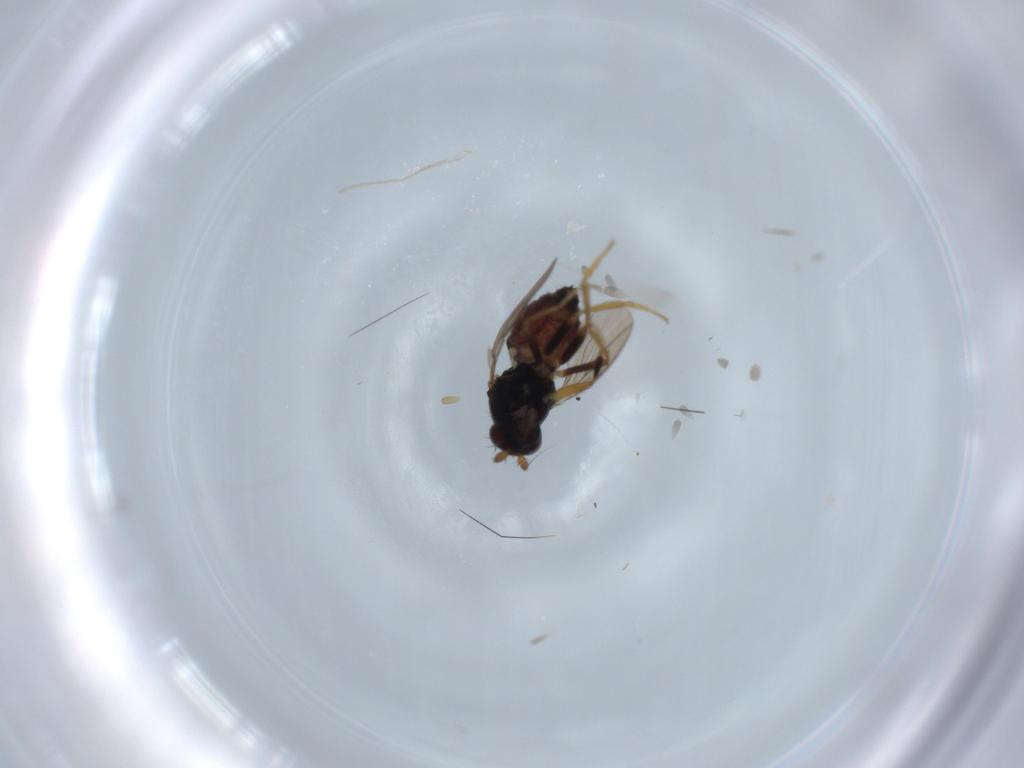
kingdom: Animalia
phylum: Arthropoda
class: Insecta
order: Diptera
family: Sphaeroceridae
